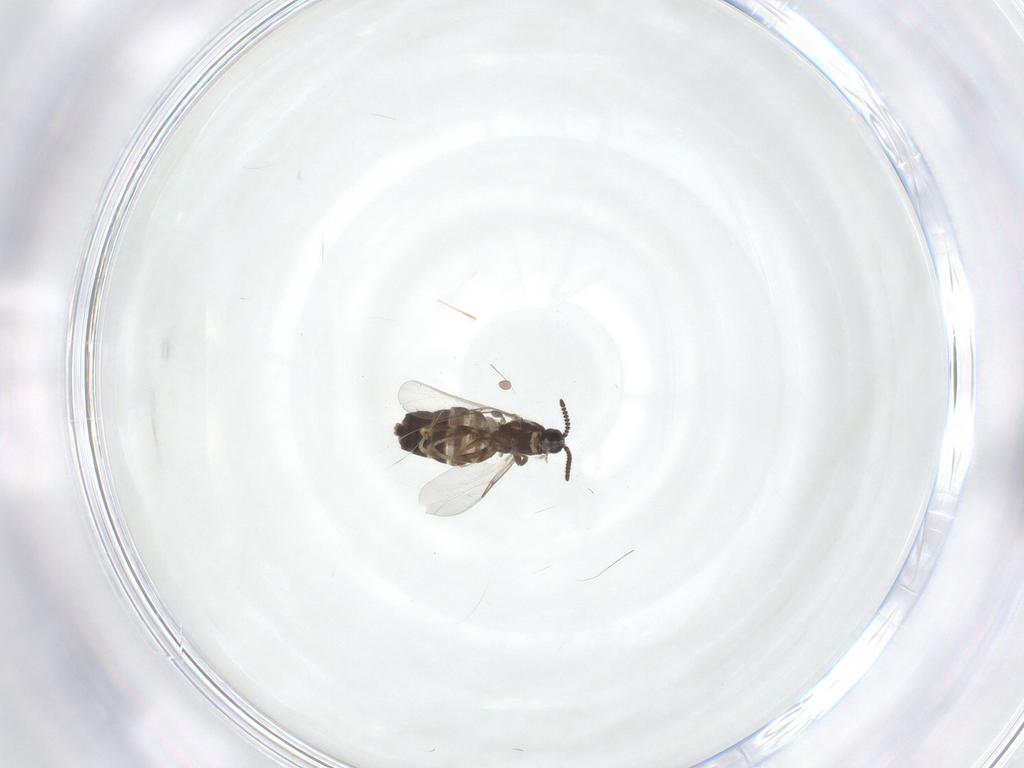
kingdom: Animalia
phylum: Arthropoda
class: Insecta
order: Diptera
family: Scatopsidae
